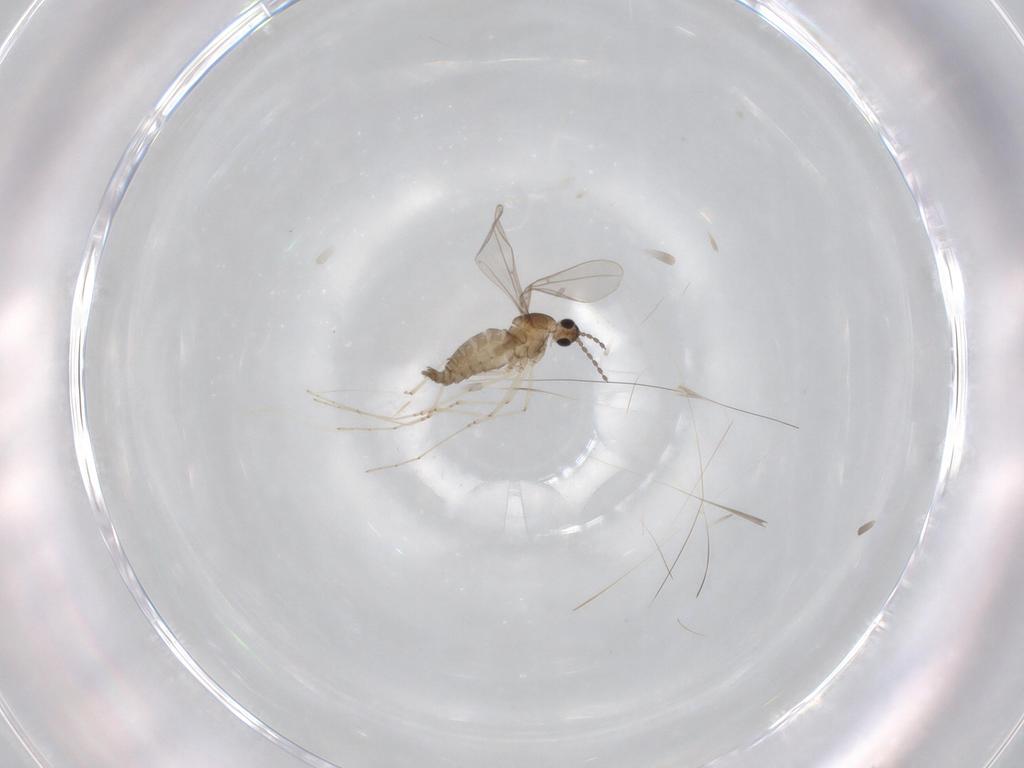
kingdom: Animalia
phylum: Arthropoda
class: Insecta
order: Diptera
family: Cecidomyiidae
